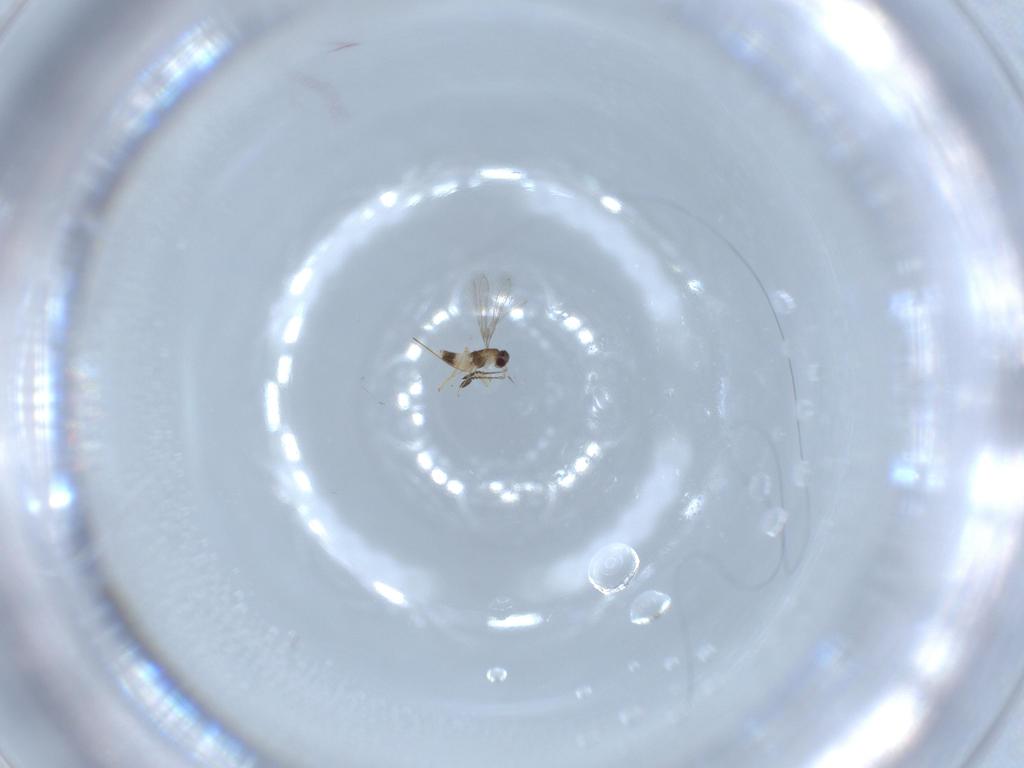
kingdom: Animalia
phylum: Arthropoda
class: Insecta
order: Hymenoptera
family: Mymaridae
